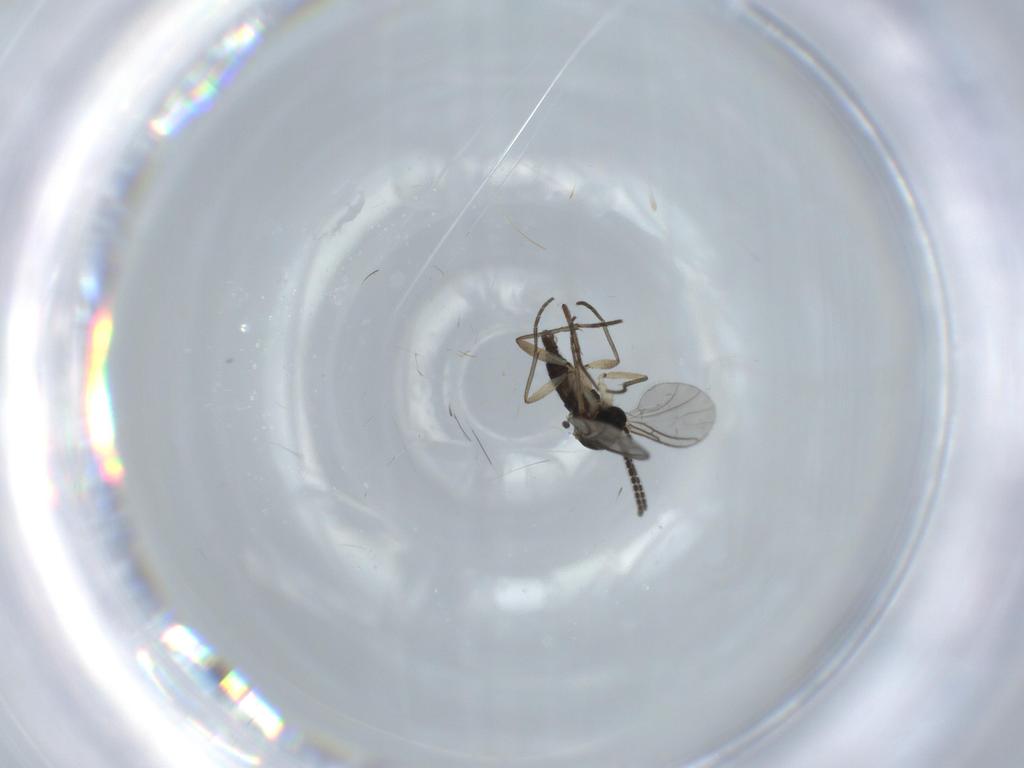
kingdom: Animalia
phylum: Arthropoda
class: Insecta
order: Diptera
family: Sciaridae
